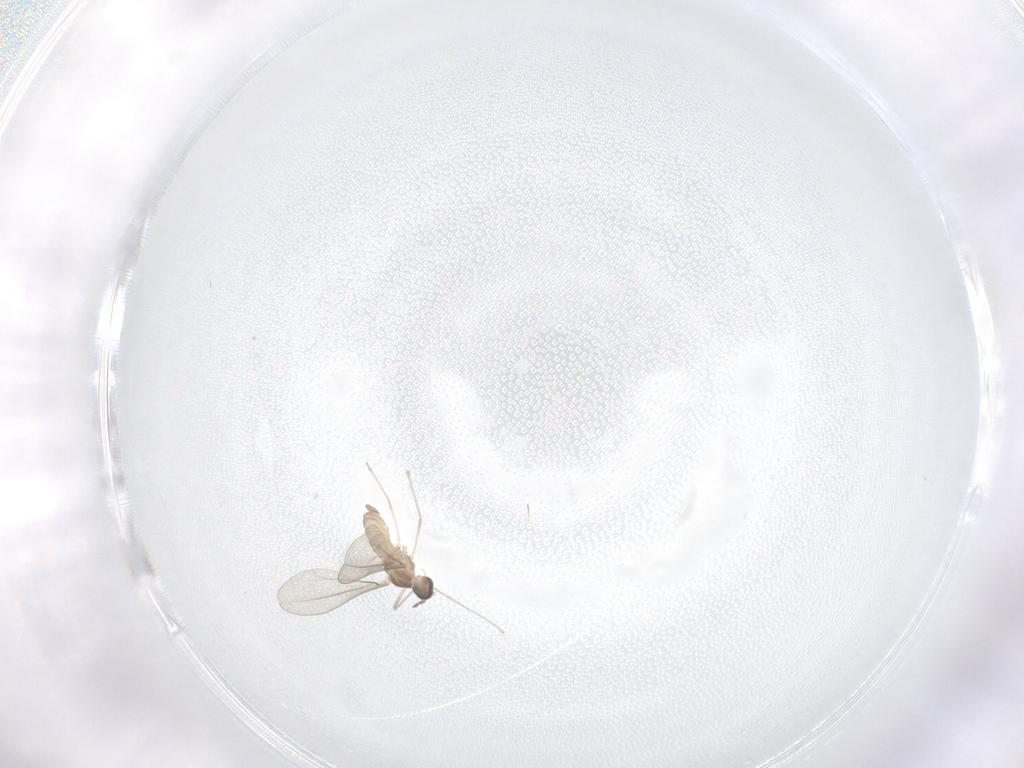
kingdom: Animalia
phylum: Arthropoda
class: Insecta
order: Diptera
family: Cecidomyiidae
